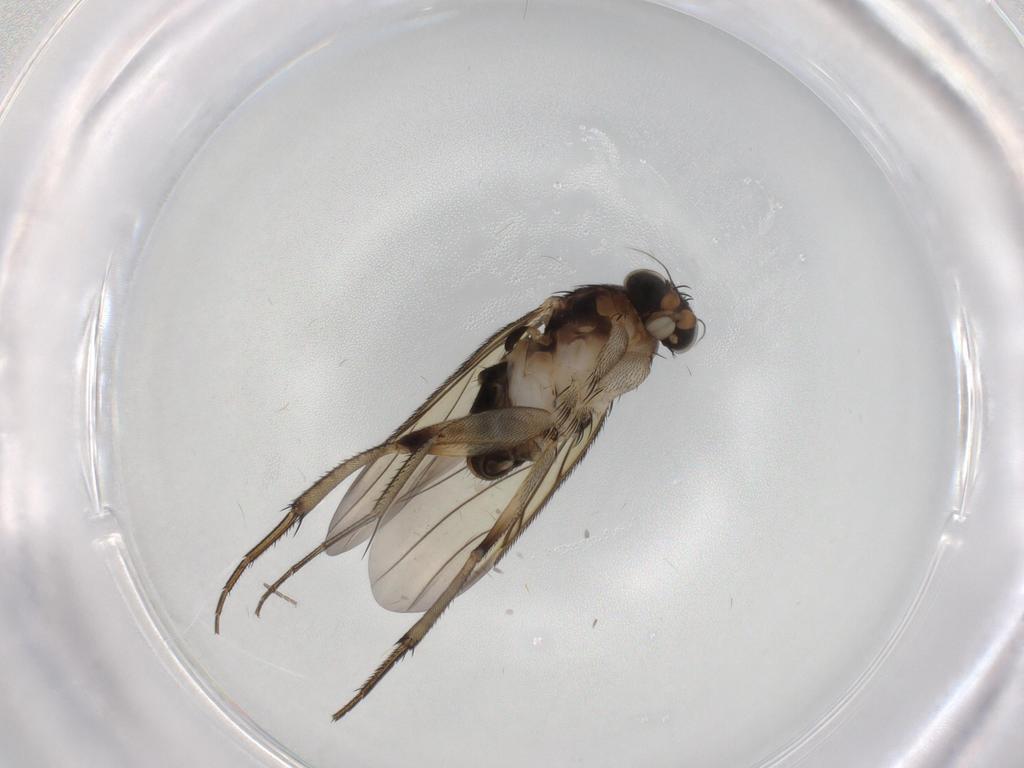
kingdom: Animalia
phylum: Arthropoda
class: Insecta
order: Diptera
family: Phoridae
